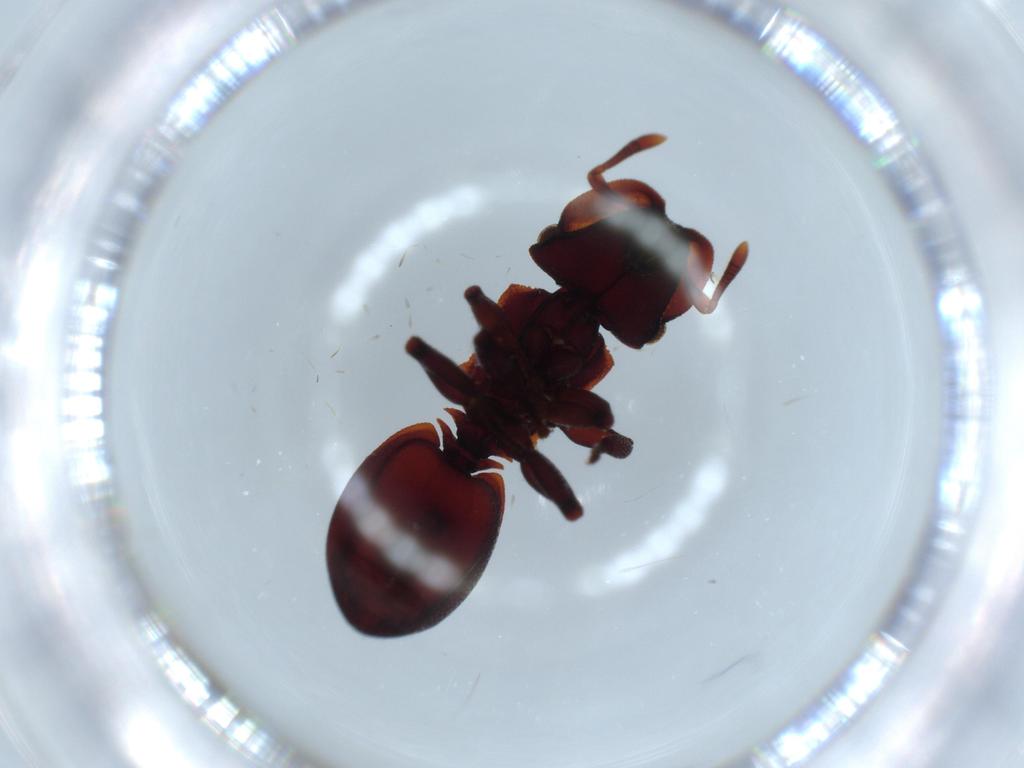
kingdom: Animalia
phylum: Arthropoda
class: Insecta
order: Hymenoptera
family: Formicidae
